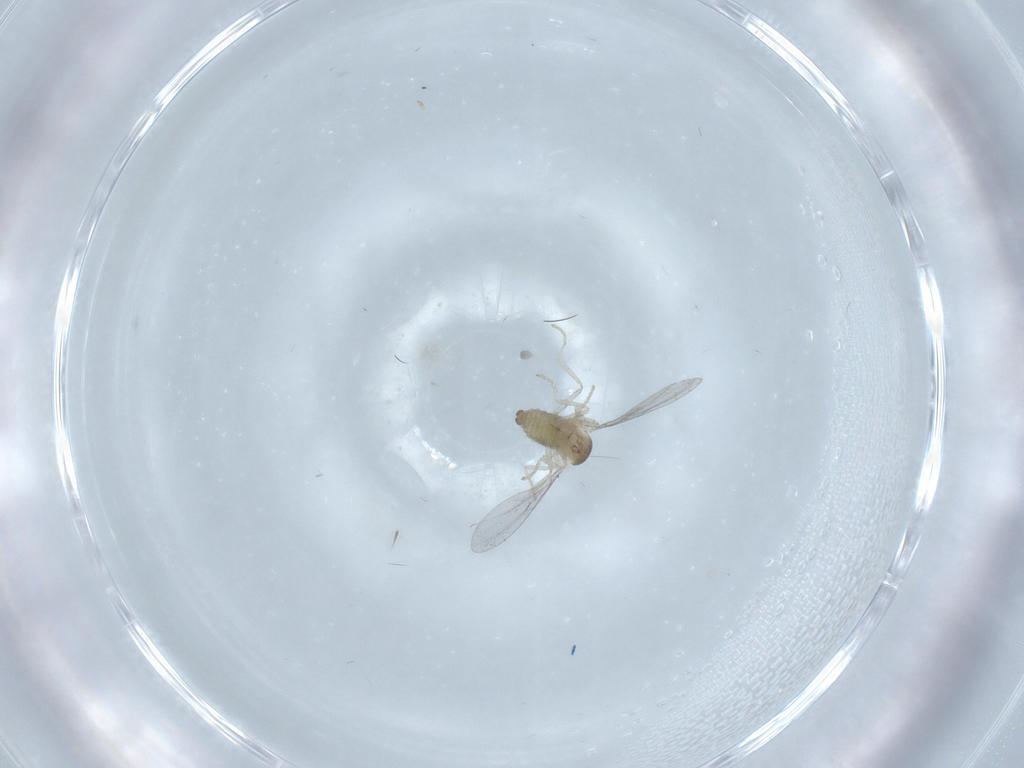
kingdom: Animalia
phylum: Arthropoda
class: Insecta
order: Diptera
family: Cecidomyiidae
